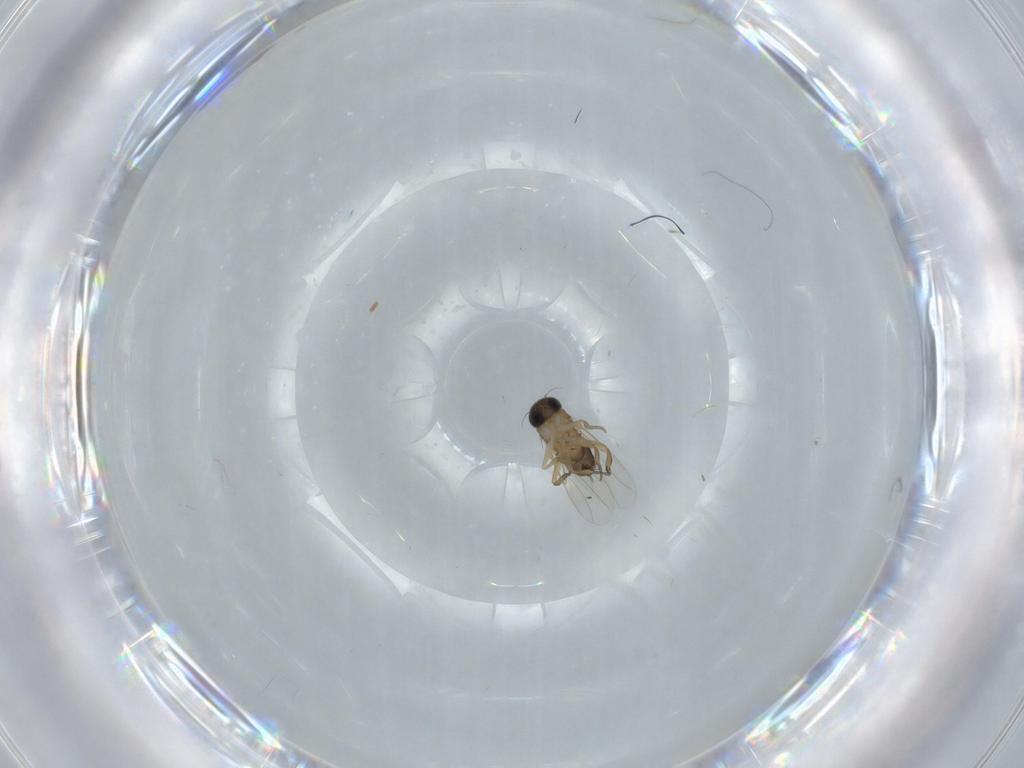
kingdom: Animalia
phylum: Arthropoda
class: Insecta
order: Diptera
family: Phoridae
